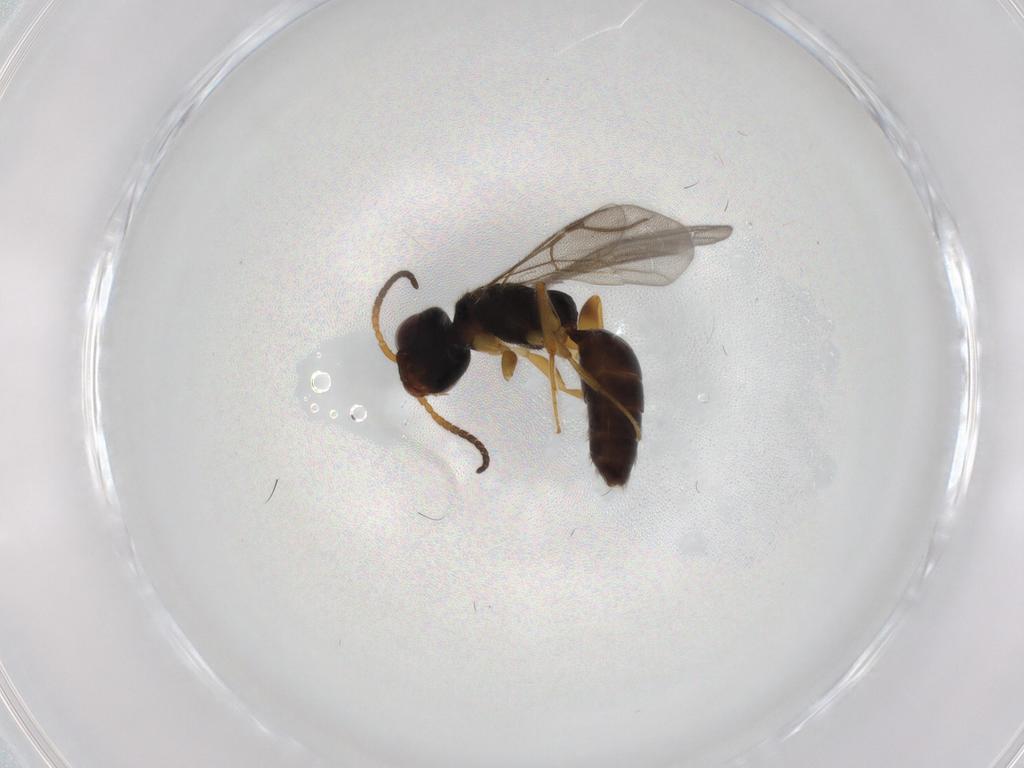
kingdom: Animalia
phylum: Arthropoda
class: Insecta
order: Hymenoptera
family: Bethylidae
